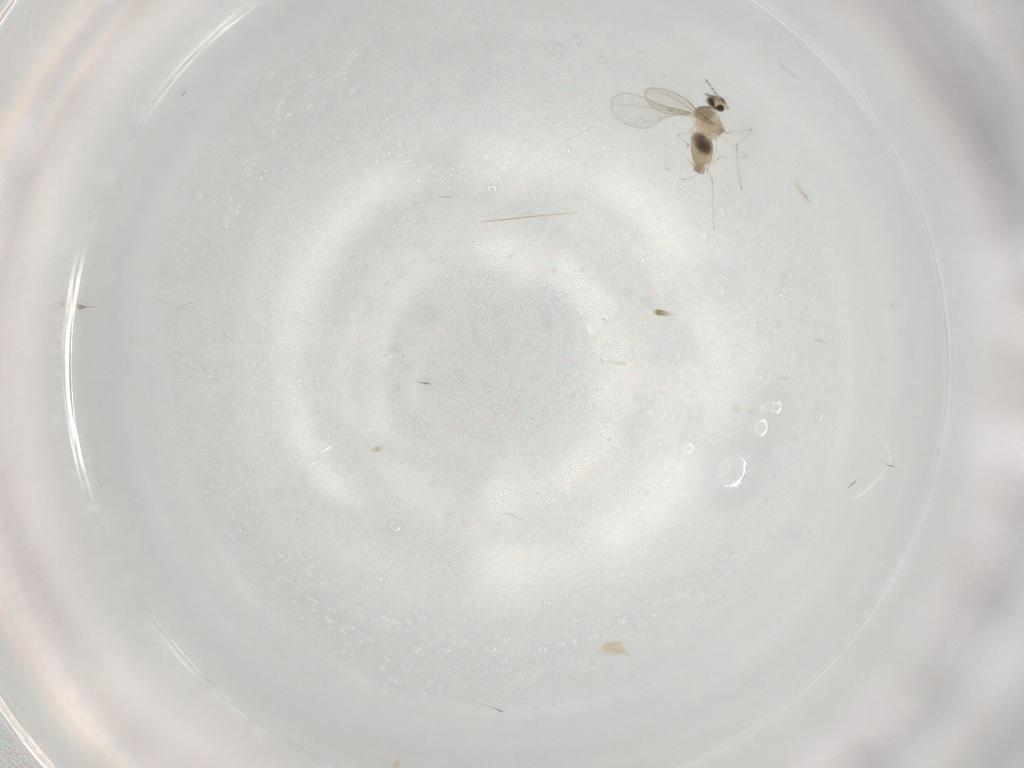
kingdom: Animalia
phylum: Arthropoda
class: Insecta
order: Diptera
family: Cecidomyiidae
